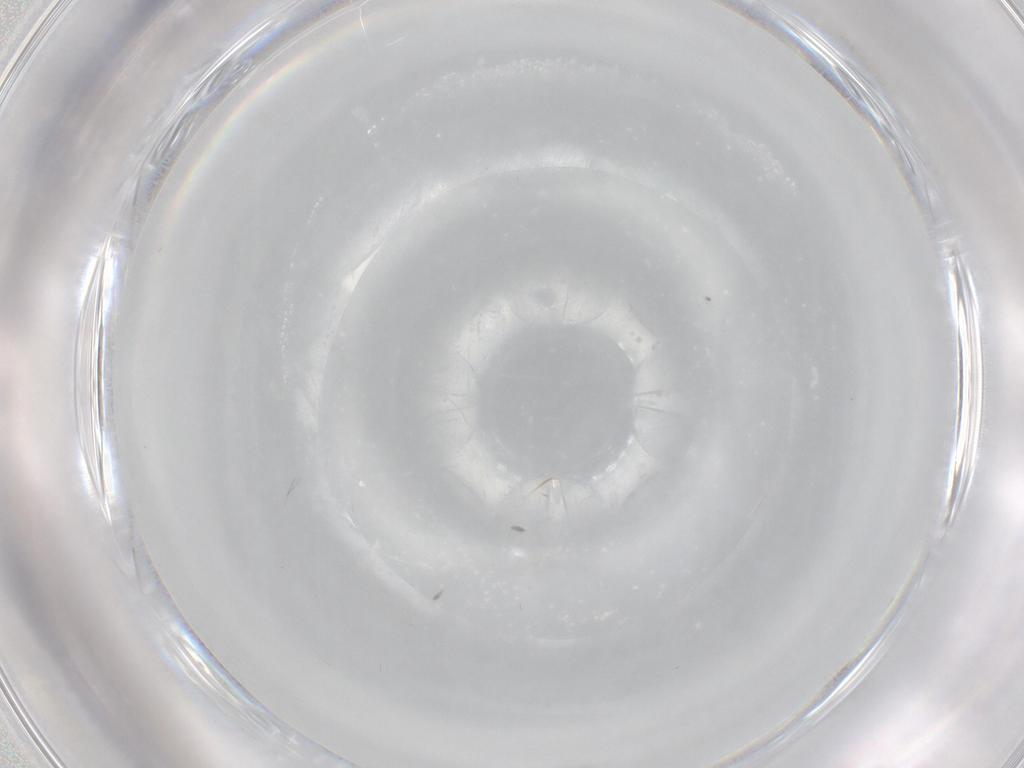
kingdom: Animalia
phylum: Arthropoda
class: Insecta
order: Diptera
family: Cecidomyiidae
